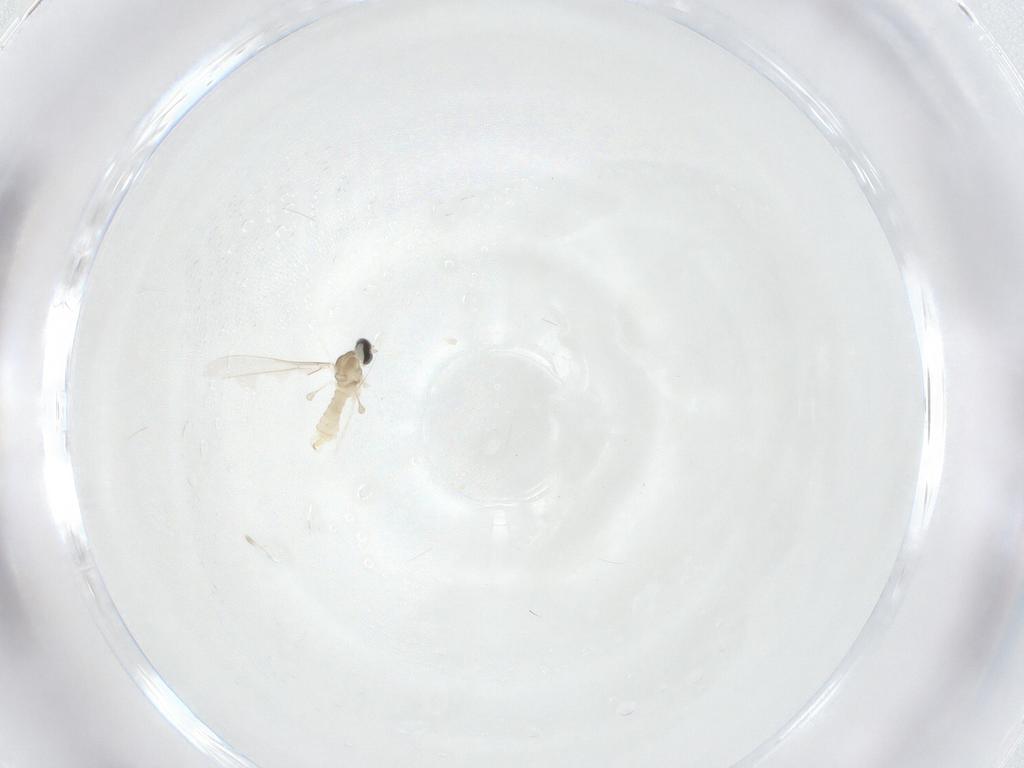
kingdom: Animalia
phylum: Arthropoda
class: Insecta
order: Diptera
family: Cecidomyiidae
